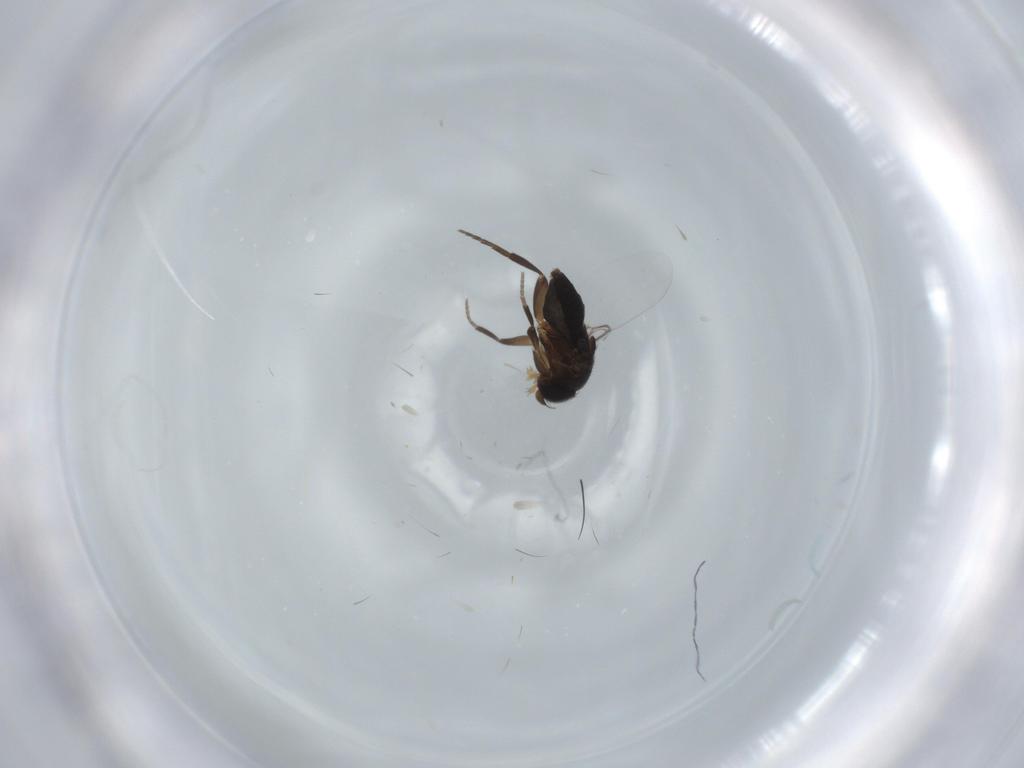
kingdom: Animalia
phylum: Arthropoda
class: Insecta
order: Diptera
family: Phoridae
